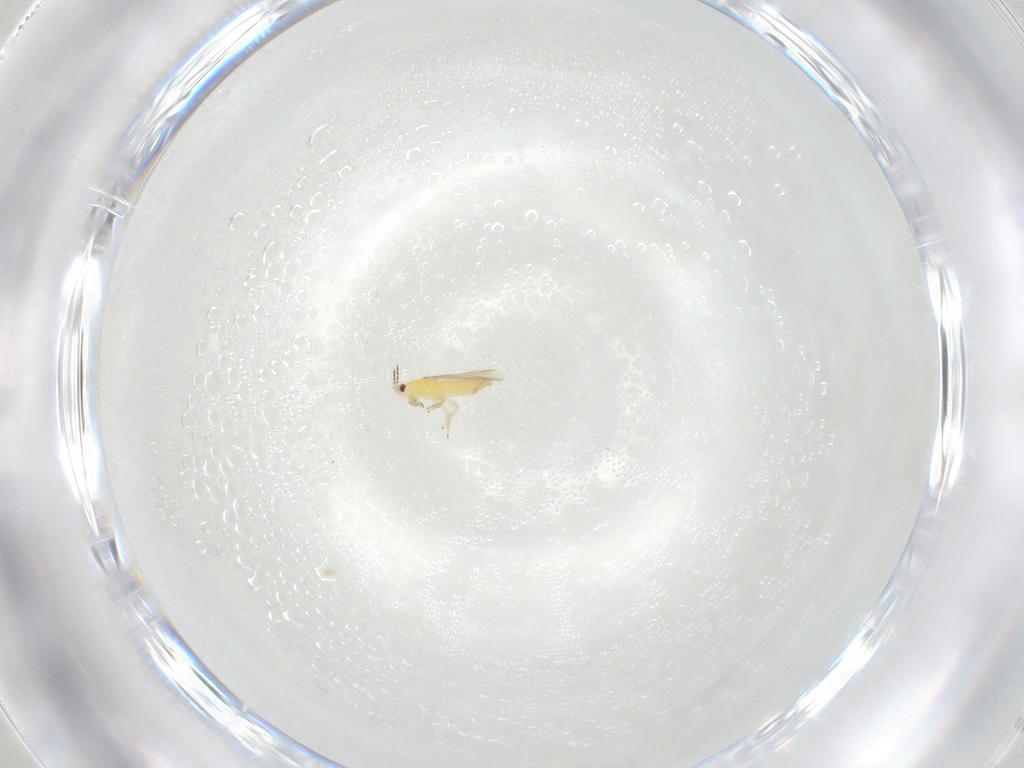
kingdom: Animalia
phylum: Arthropoda
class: Insecta
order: Thysanoptera
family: Thripidae
